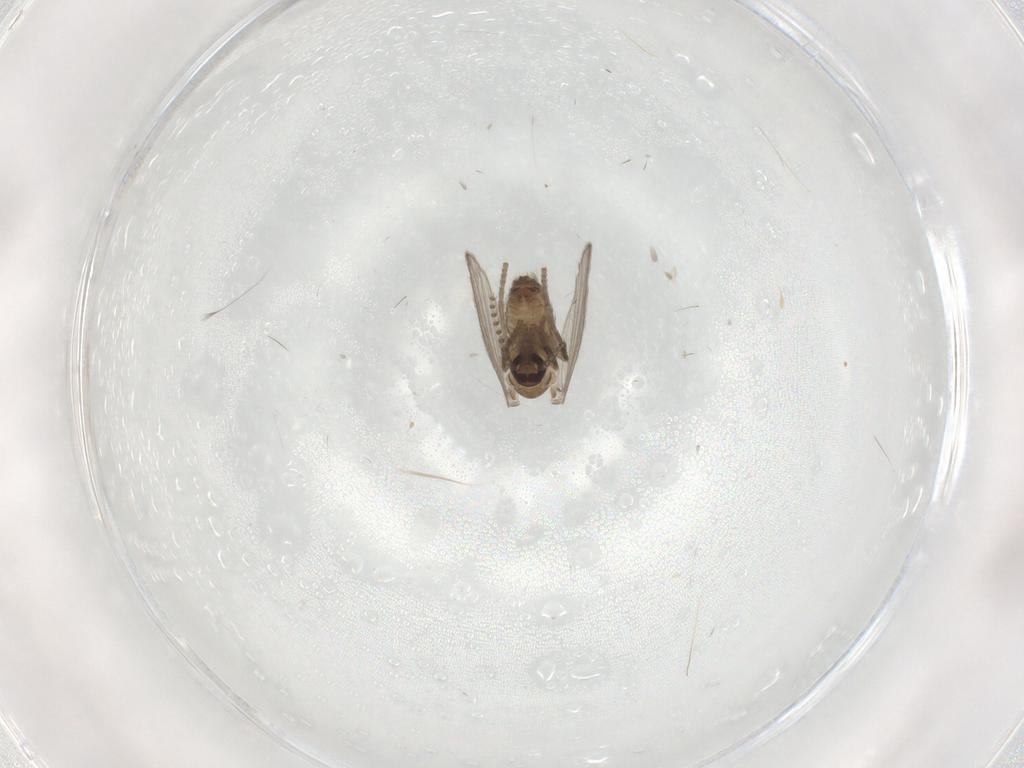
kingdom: Animalia
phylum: Arthropoda
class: Insecta
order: Diptera
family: Psychodidae
